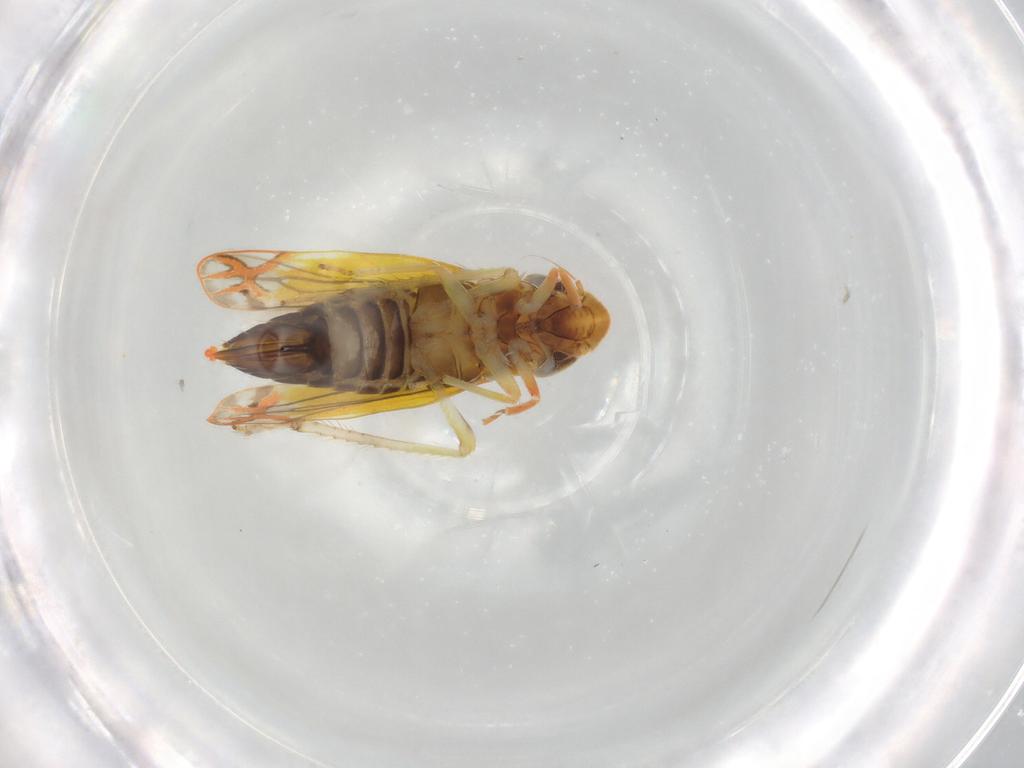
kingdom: Animalia
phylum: Arthropoda
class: Insecta
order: Hemiptera
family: Cicadellidae
